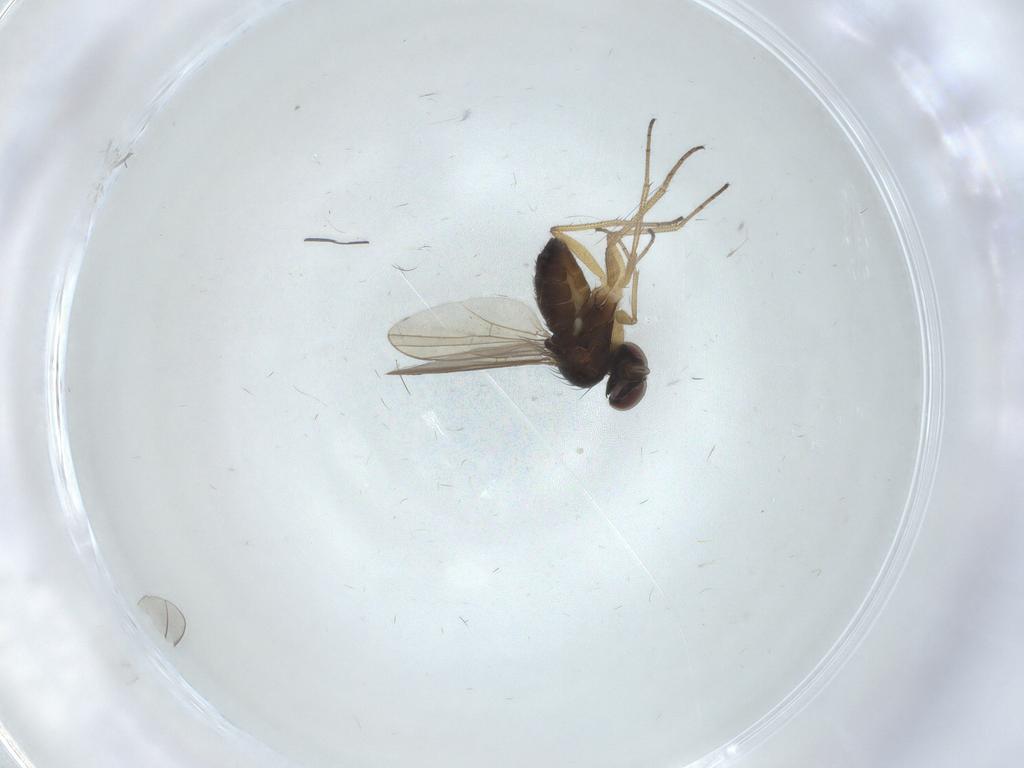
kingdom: Animalia
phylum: Arthropoda
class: Insecta
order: Diptera
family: Dolichopodidae
